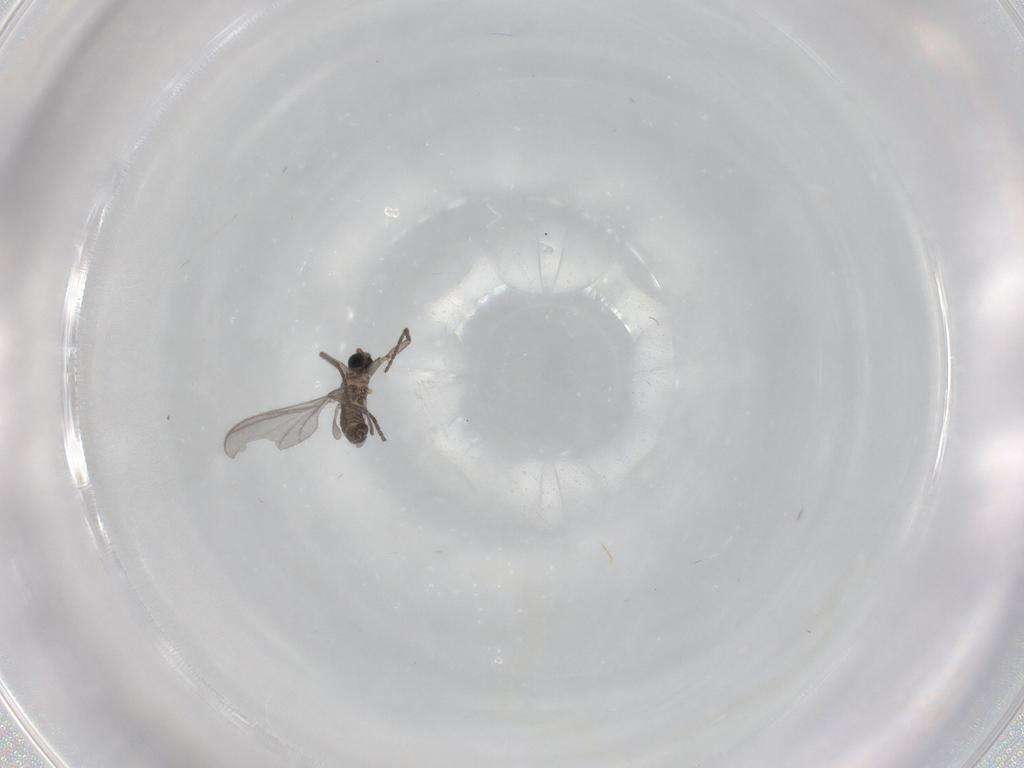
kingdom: Animalia
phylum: Arthropoda
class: Insecta
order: Diptera
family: Sciaridae
